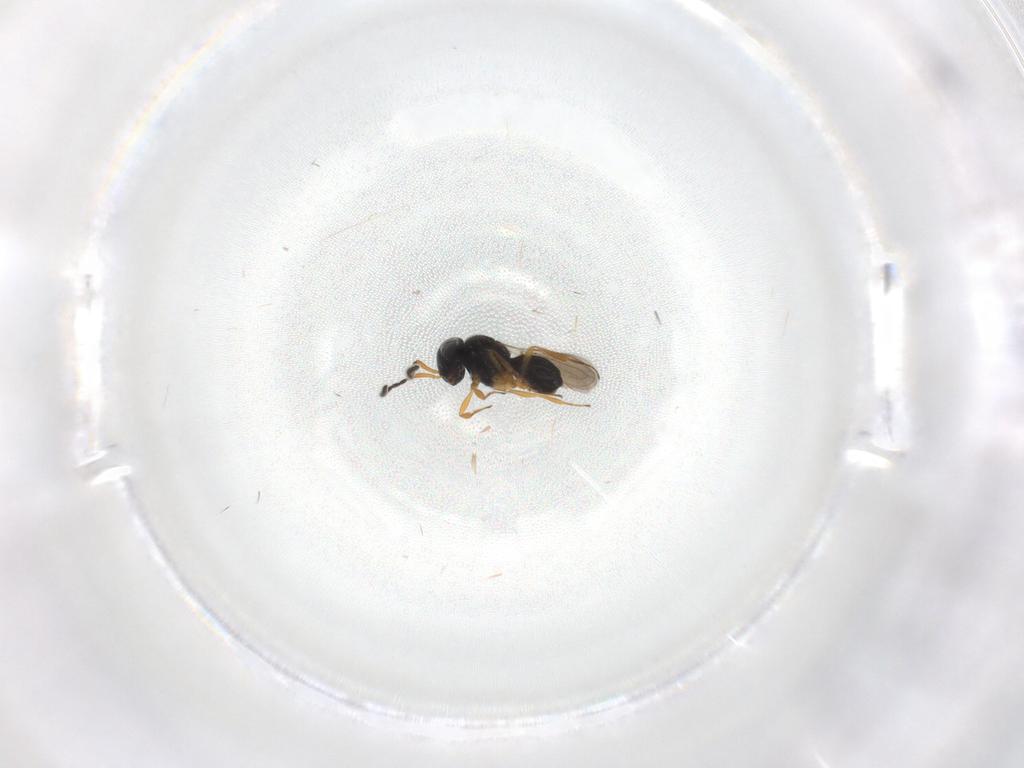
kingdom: Animalia
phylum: Arthropoda
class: Insecta
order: Hymenoptera
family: Scelionidae
